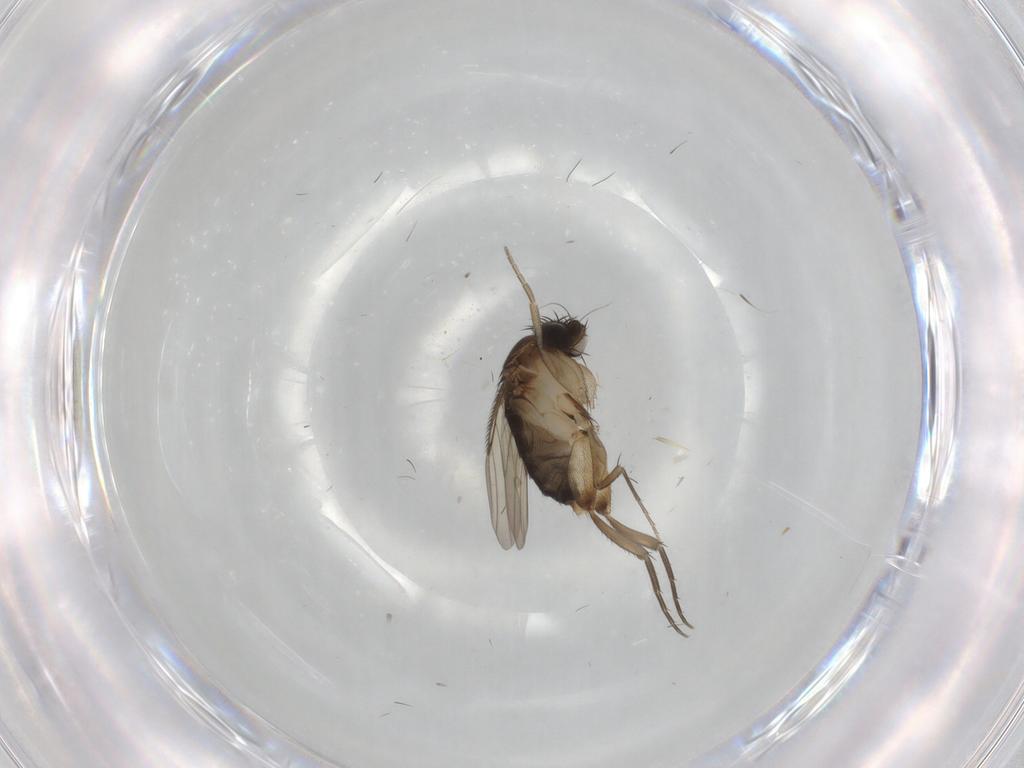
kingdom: Animalia
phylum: Arthropoda
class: Insecta
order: Diptera
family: Phoridae
